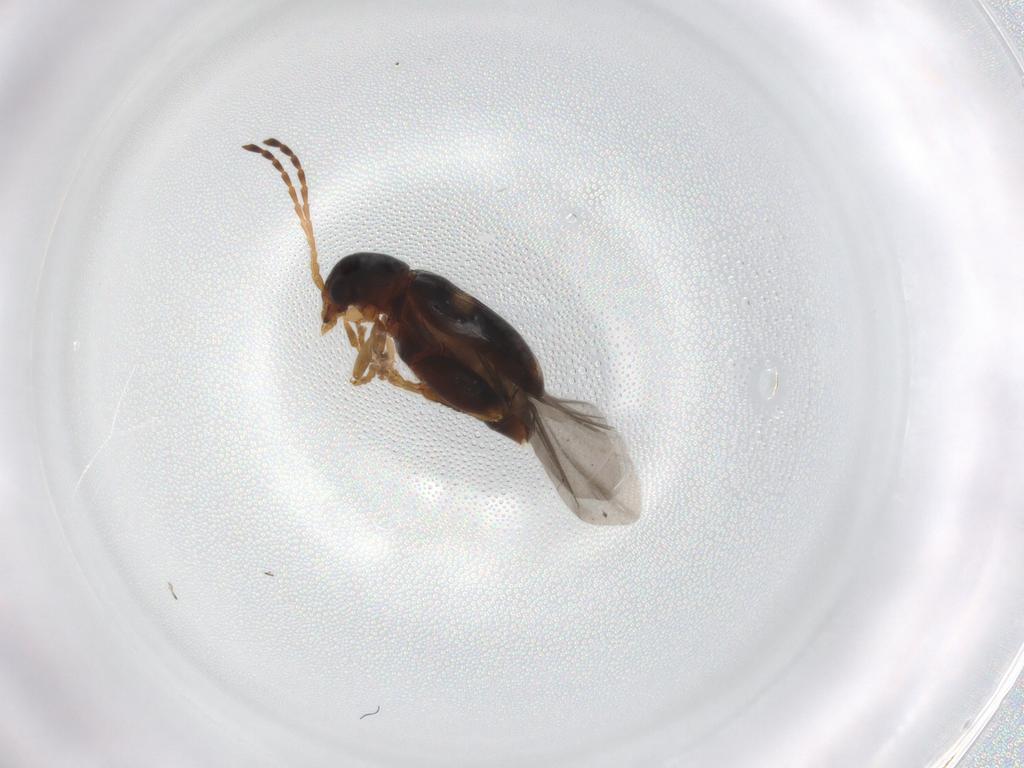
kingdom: Animalia
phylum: Arthropoda
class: Insecta
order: Coleoptera
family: Chrysomelidae
